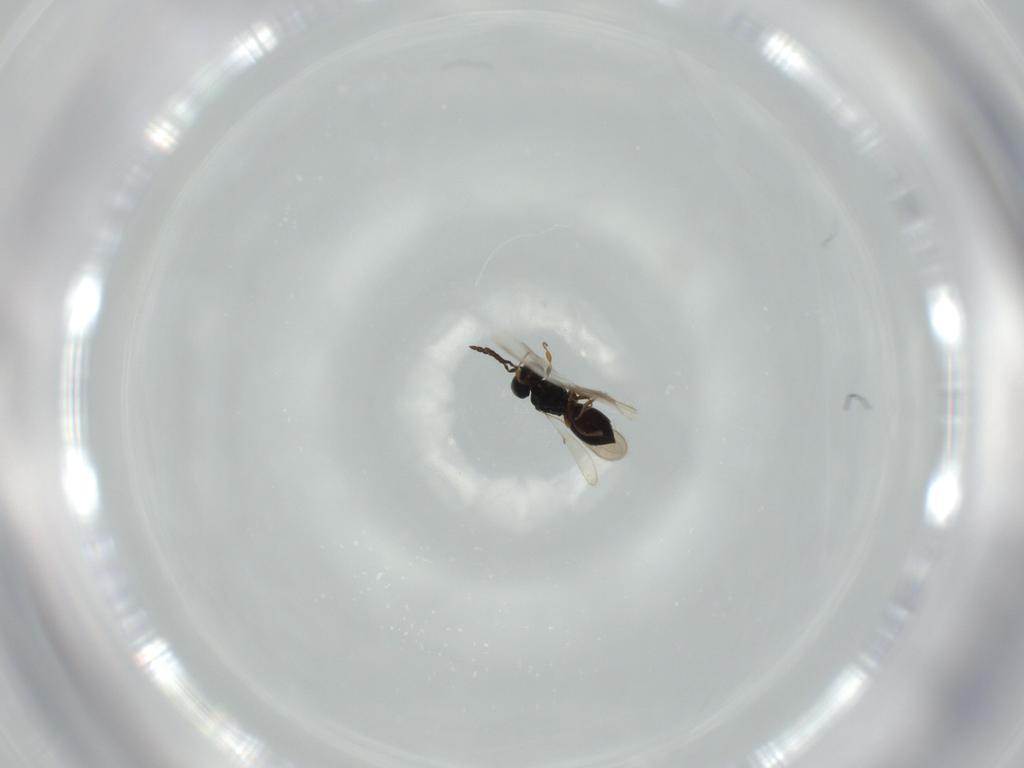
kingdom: Animalia
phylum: Arthropoda
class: Insecta
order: Hymenoptera
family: Scelionidae
